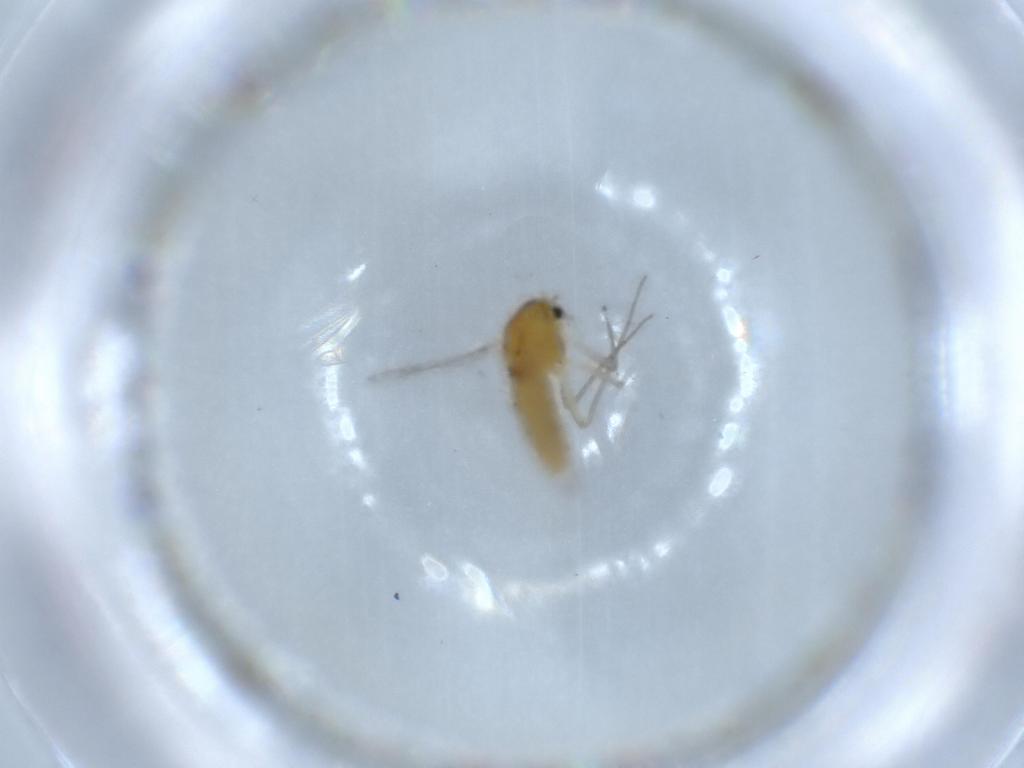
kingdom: Animalia
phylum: Arthropoda
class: Insecta
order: Diptera
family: Chironomidae
